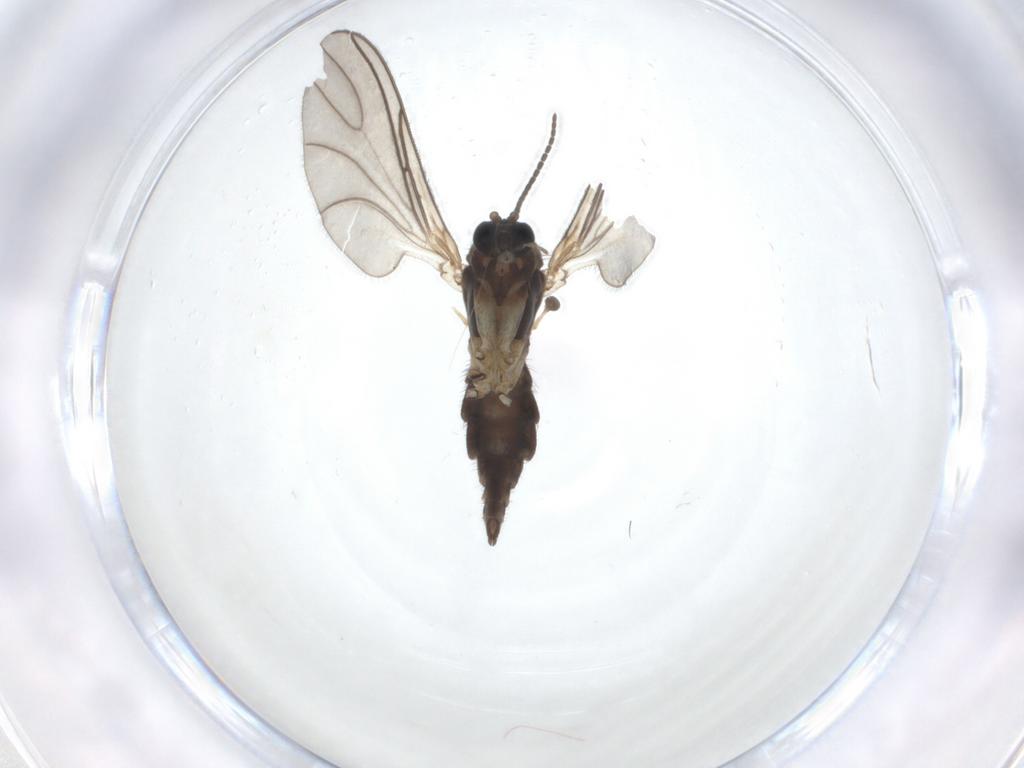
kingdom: Animalia
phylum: Arthropoda
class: Insecta
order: Diptera
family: Sciaridae
